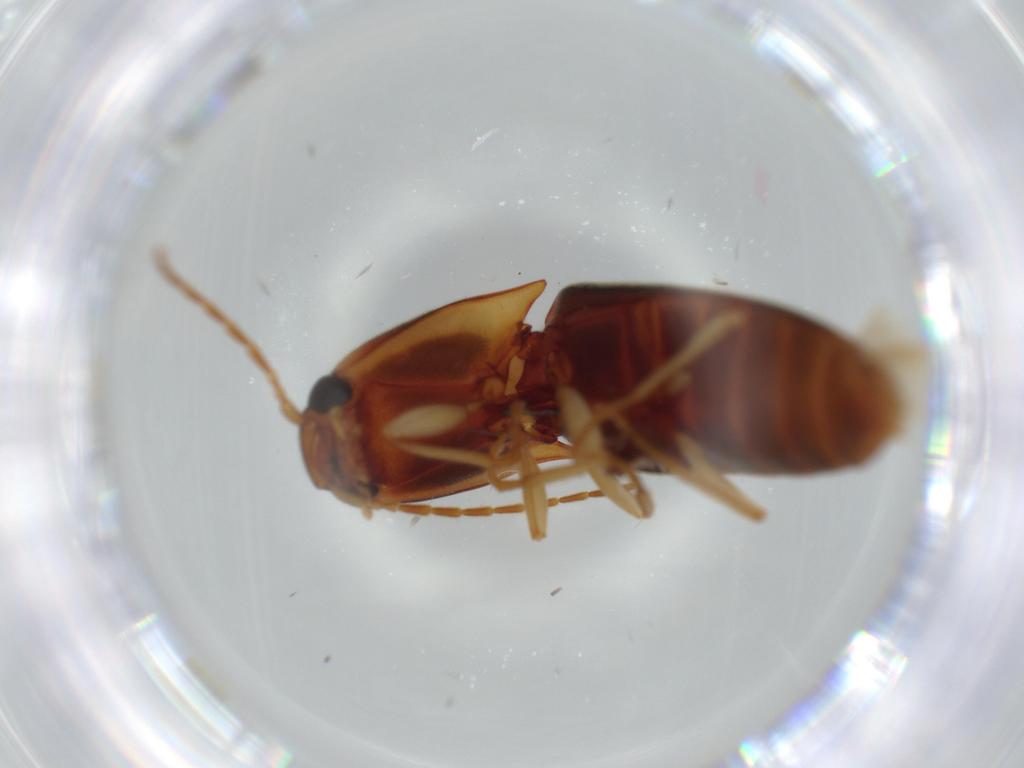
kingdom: Animalia
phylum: Arthropoda
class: Insecta
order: Coleoptera
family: Elateridae
